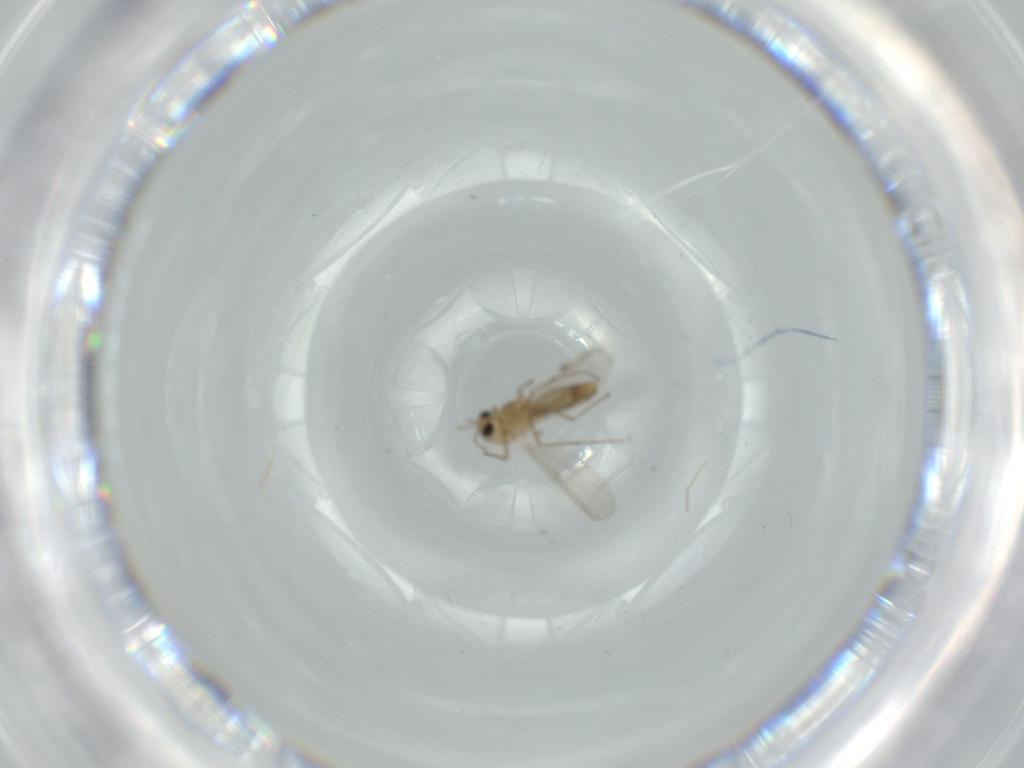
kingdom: Animalia
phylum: Arthropoda
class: Insecta
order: Diptera
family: Chironomidae
